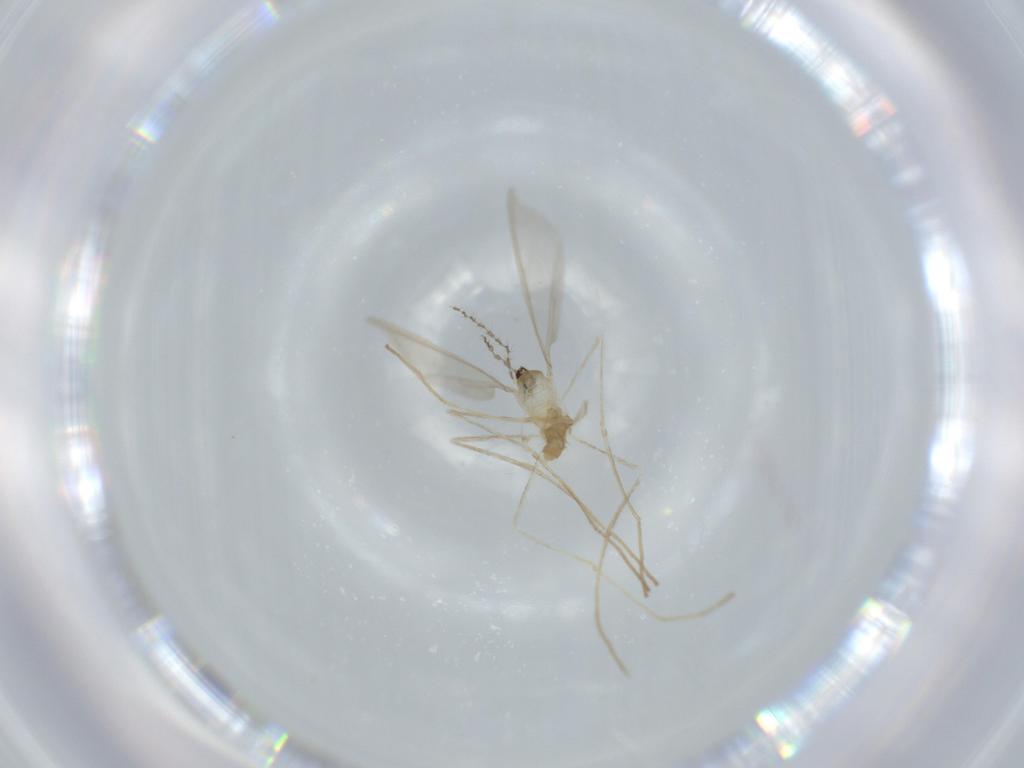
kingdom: Animalia
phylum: Arthropoda
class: Insecta
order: Diptera
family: Cecidomyiidae
